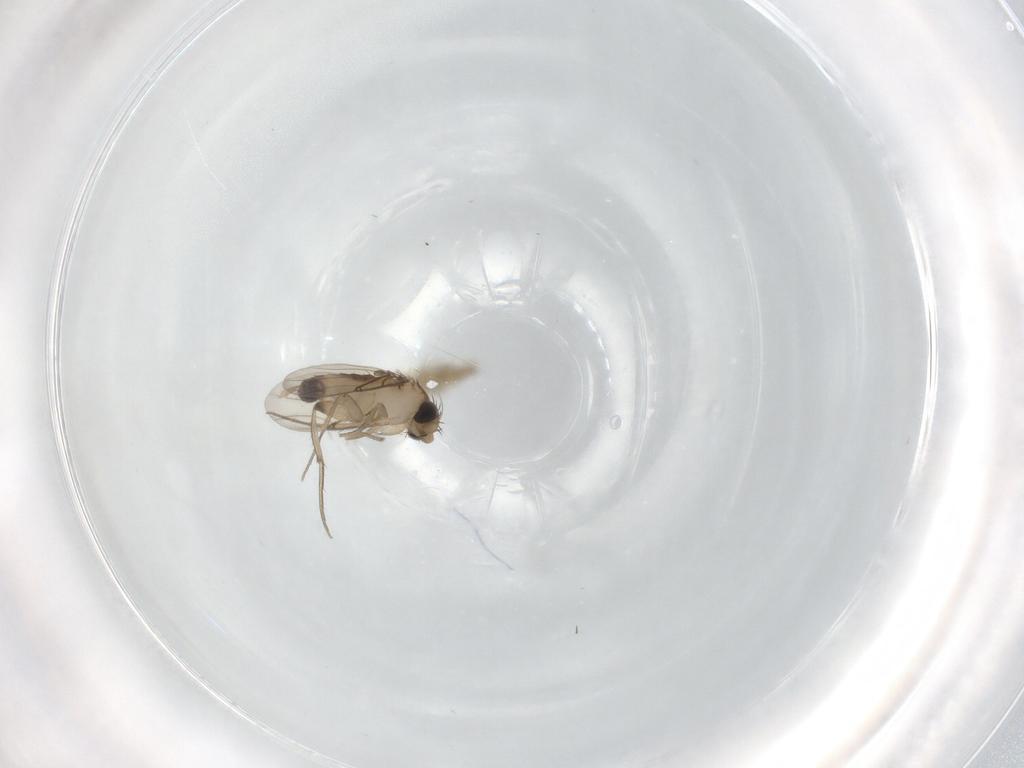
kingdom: Animalia
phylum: Arthropoda
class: Insecta
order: Diptera
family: Phoridae
